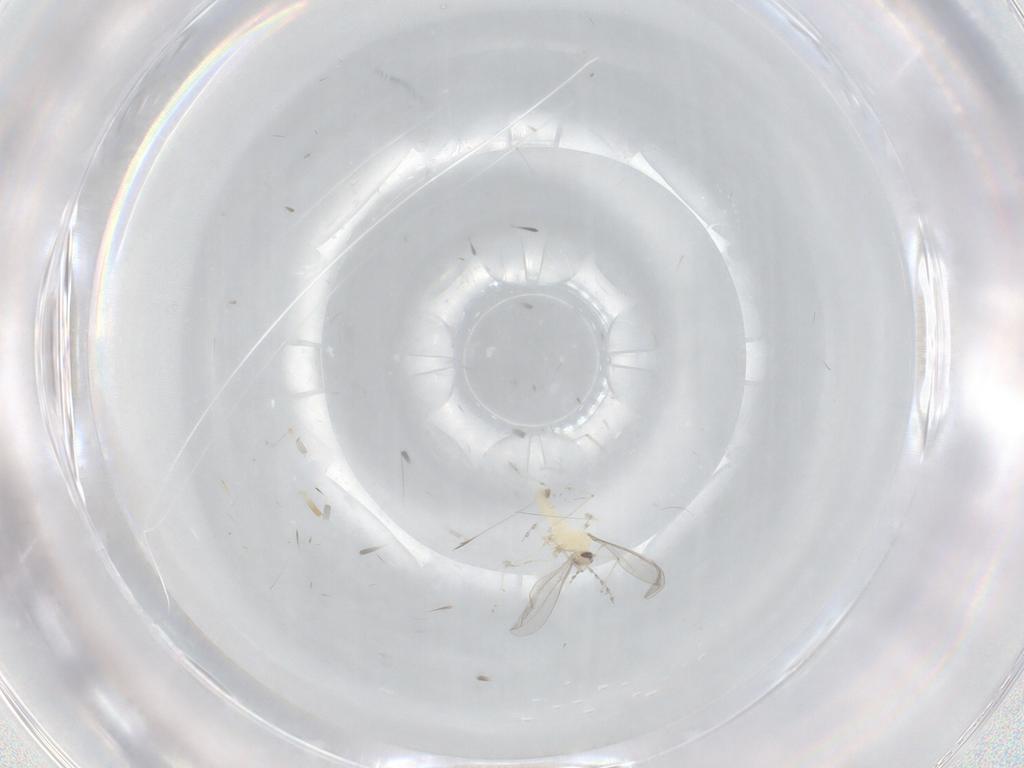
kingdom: Animalia
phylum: Arthropoda
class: Insecta
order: Diptera
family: Cecidomyiidae
